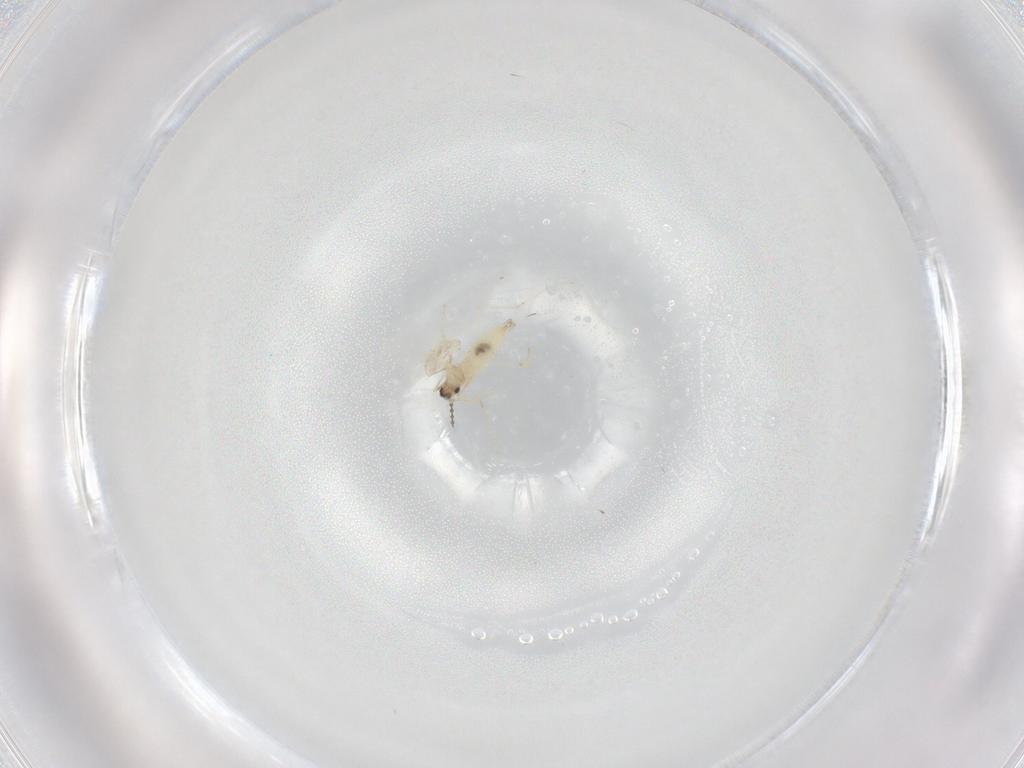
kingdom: Animalia
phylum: Arthropoda
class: Insecta
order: Diptera
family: Cecidomyiidae
